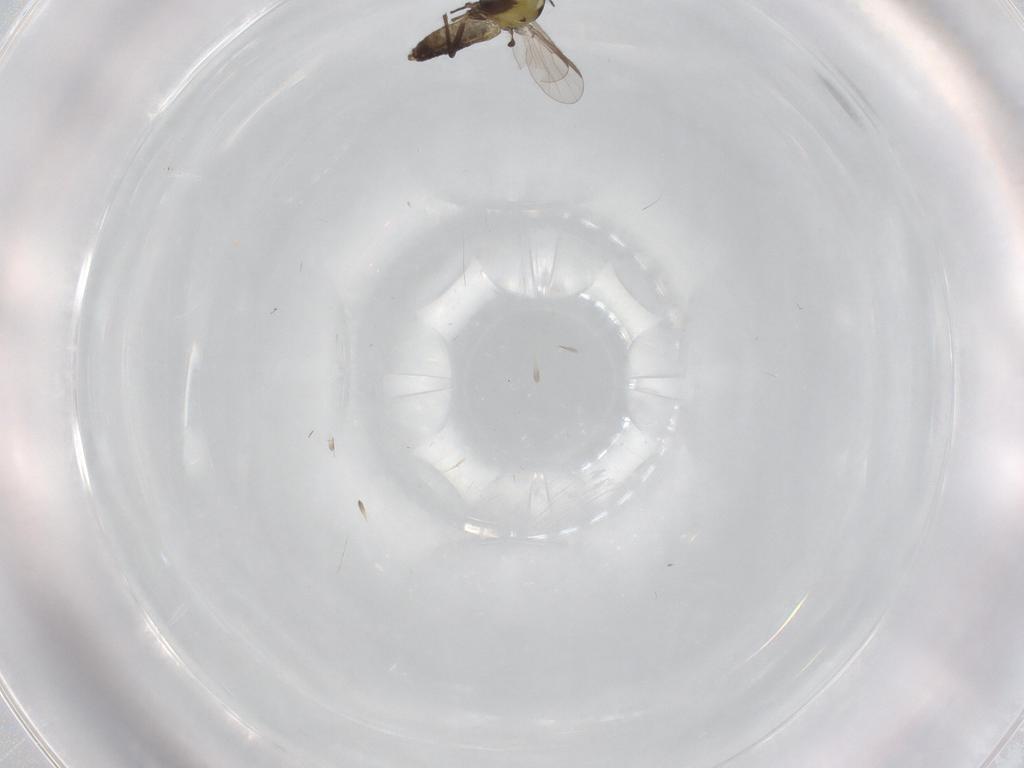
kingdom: Animalia
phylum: Arthropoda
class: Insecta
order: Diptera
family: Chironomidae
